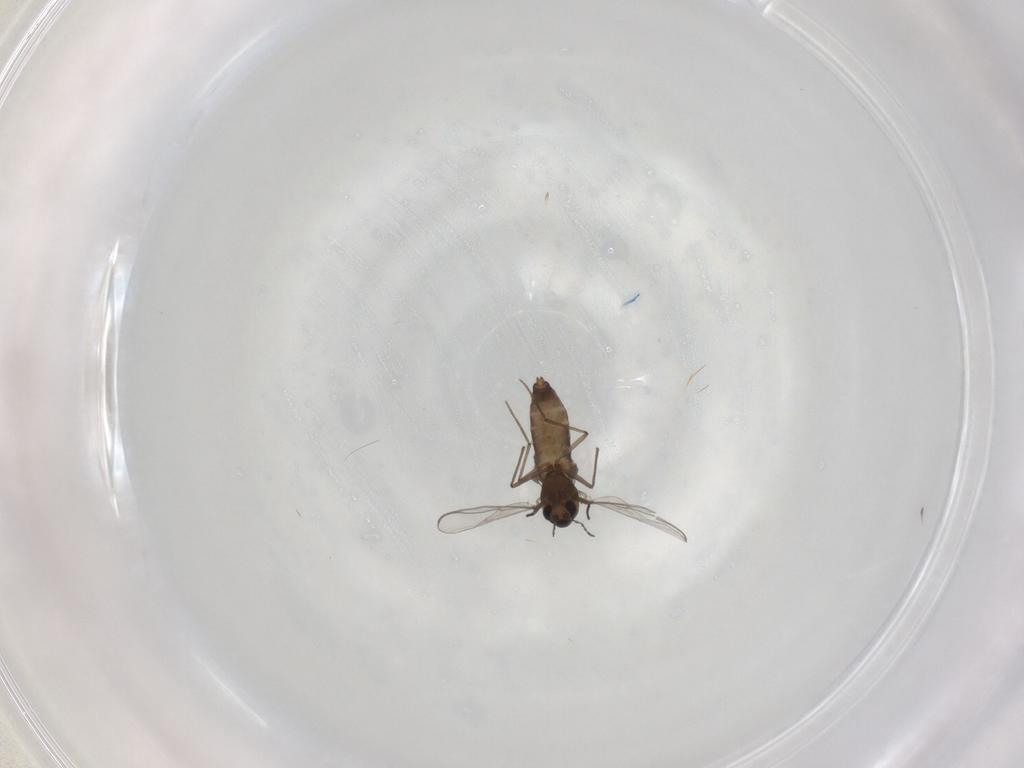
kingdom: Animalia
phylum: Arthropoda
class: Insecta
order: Diptera
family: Chironomidae
